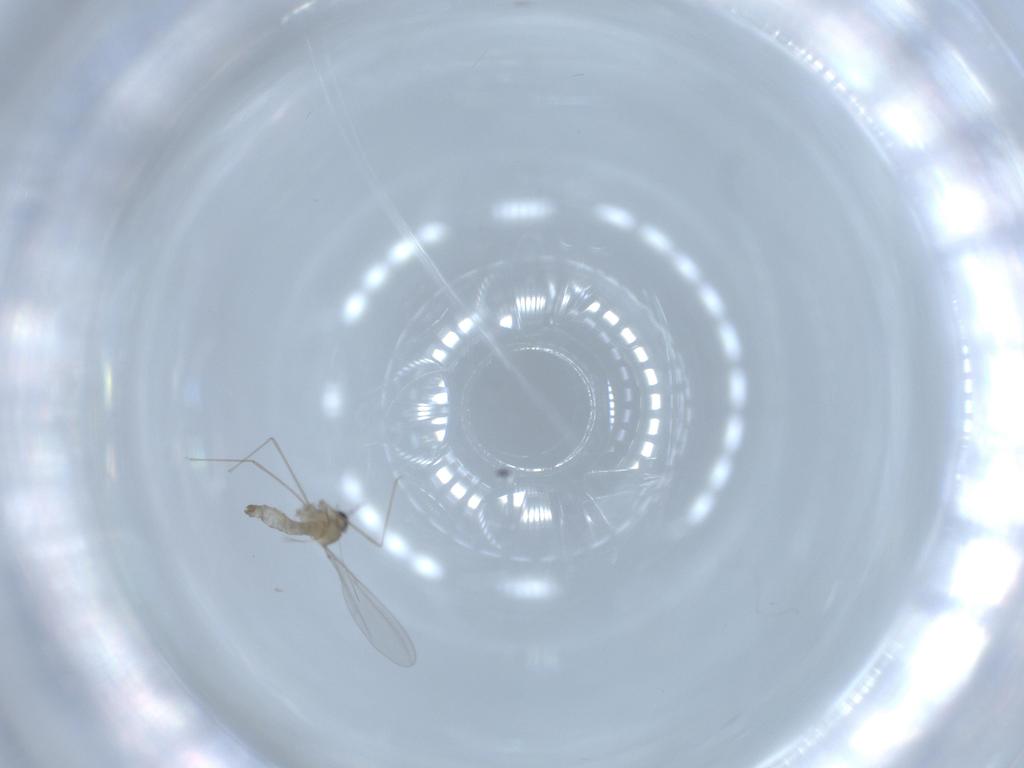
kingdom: Animalia
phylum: Arthropoda
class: Insecta
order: Diptera
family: Cecidomyiidae
